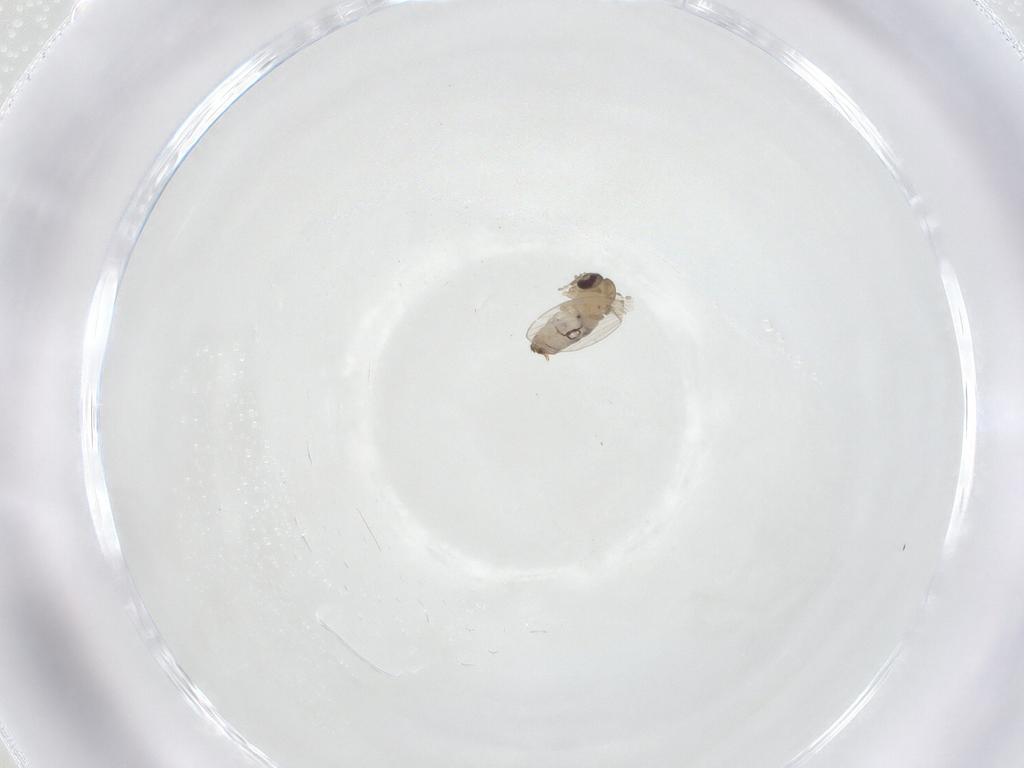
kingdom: Animalia
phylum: Arthropoda
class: Insecta
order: Diptera
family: Psychodidae
